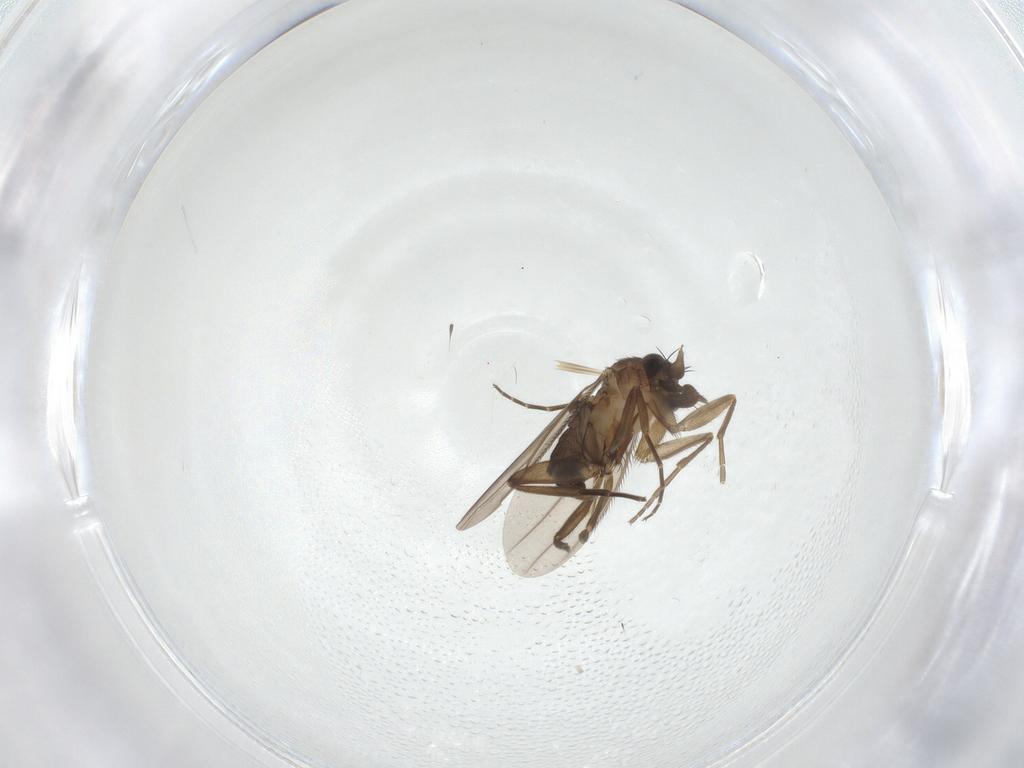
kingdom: Animalia
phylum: Arthropoda
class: Insecta
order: Diptera
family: Phoridae
